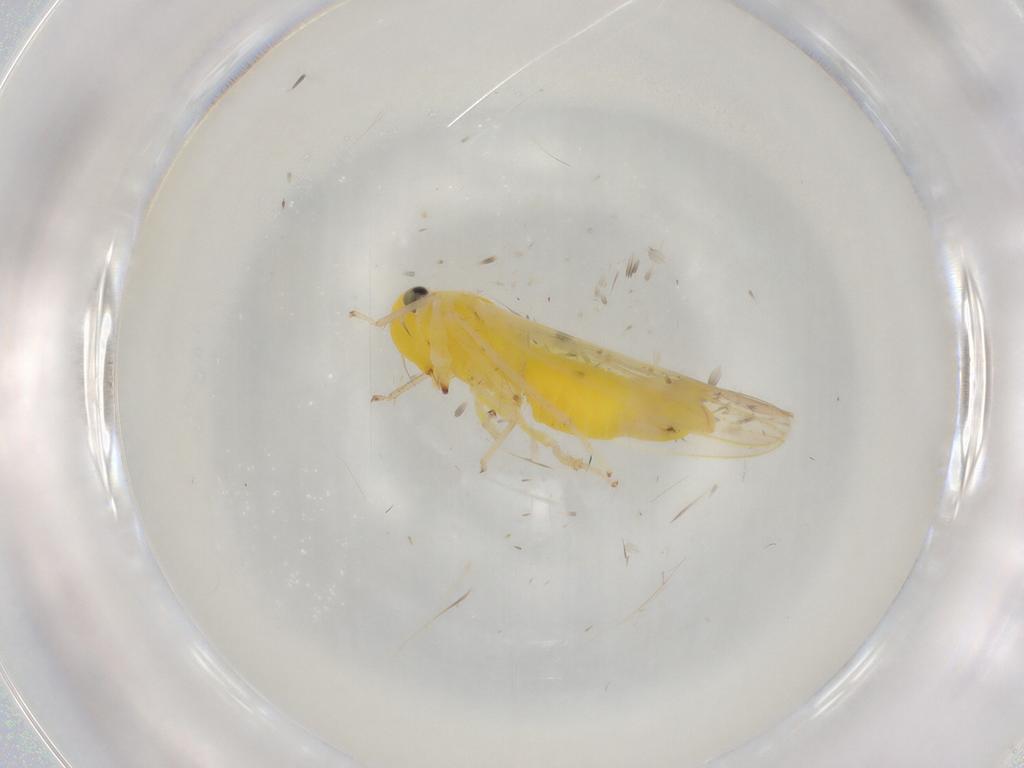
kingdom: Animalia
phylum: Arthropoda
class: Insecta
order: Hemiptera
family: Cicadellidae
